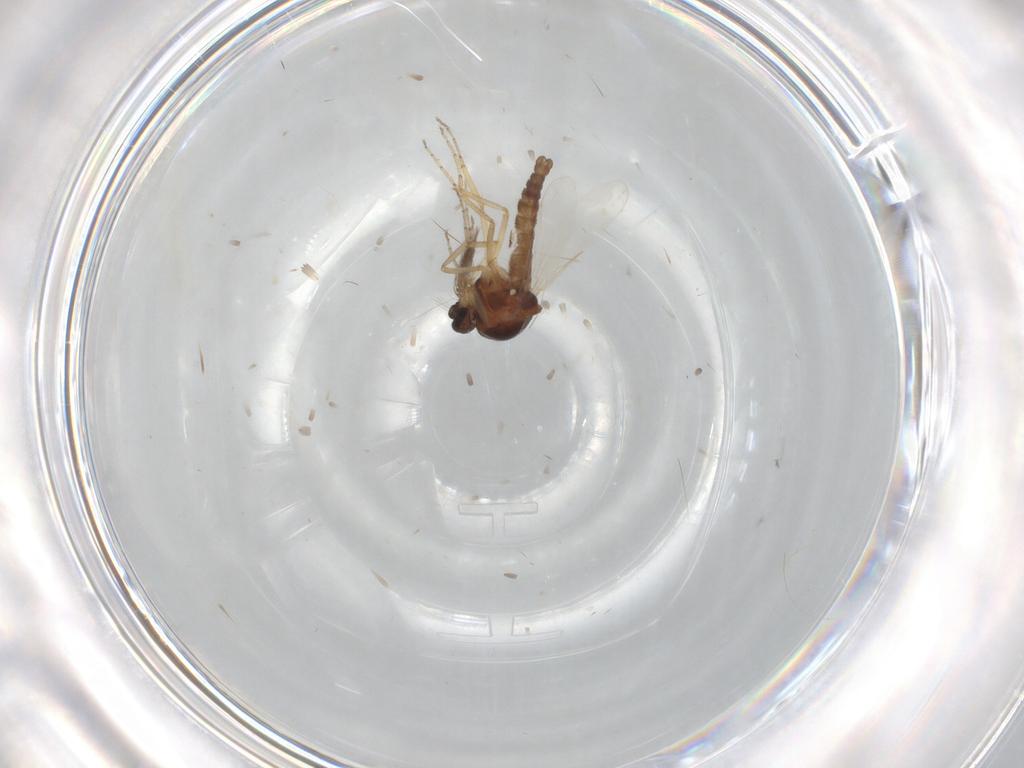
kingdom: Animalia
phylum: Arthropoda
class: Insecta
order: Diptera
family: Ceratopogonidae
